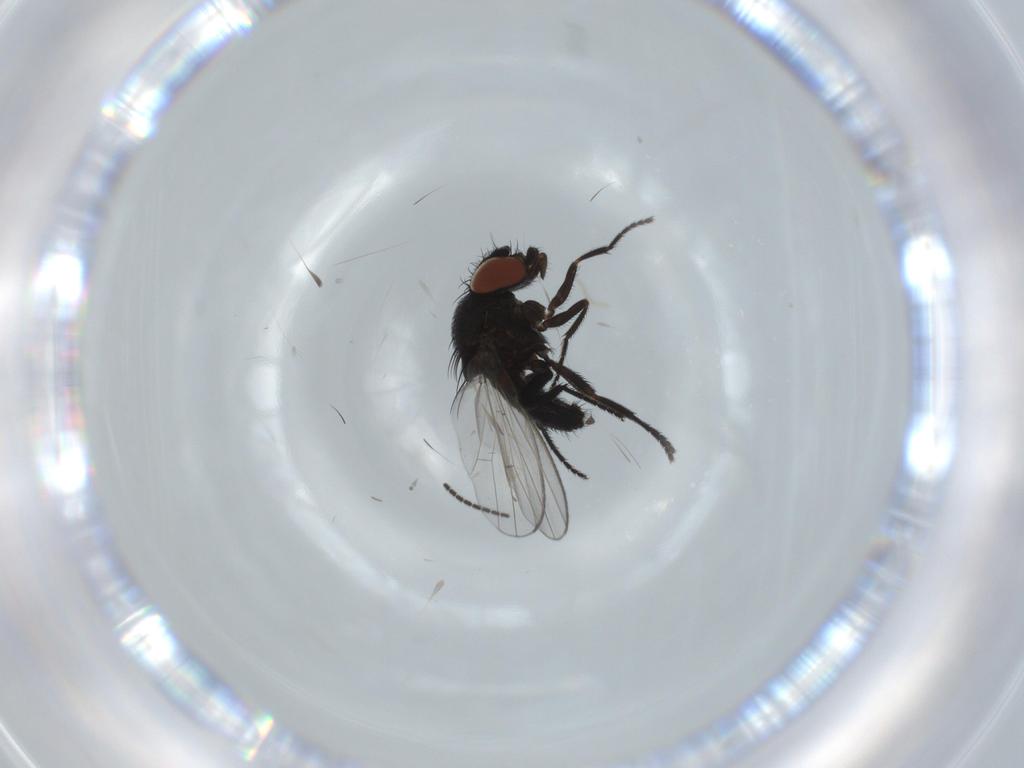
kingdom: Animalia
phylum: Arthropoda
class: Insecta
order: Diptera
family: Milichiidae
